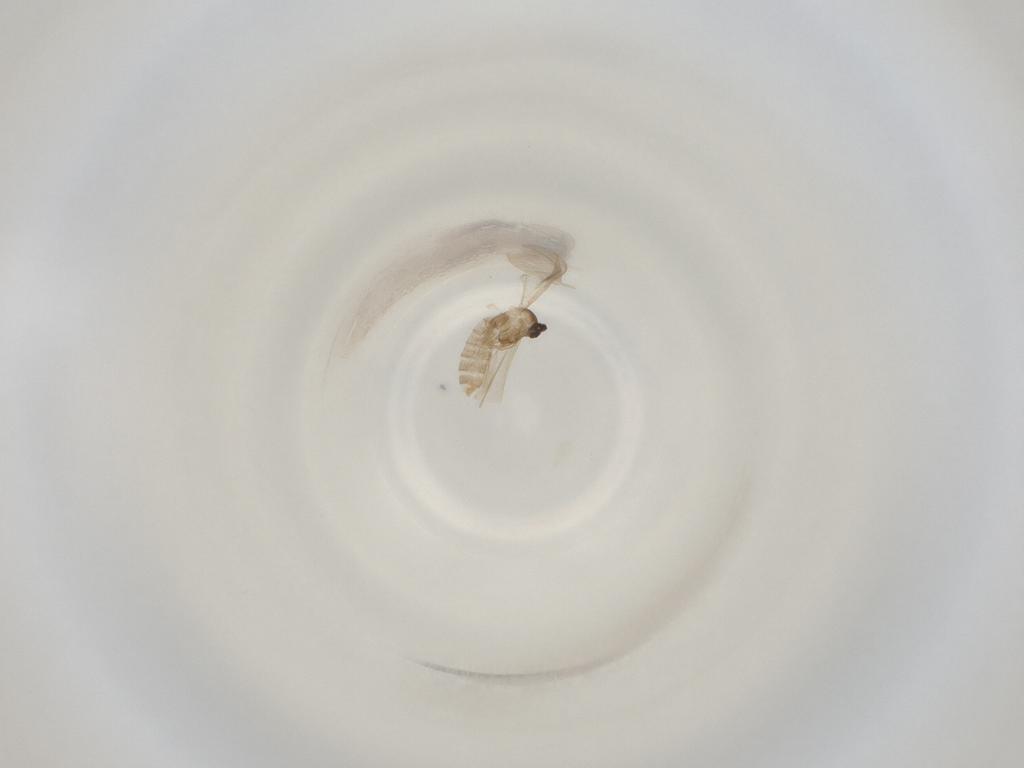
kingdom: Animalia
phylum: Arthropoda
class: Insecta
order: Diptera
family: Cecidomyiidae
